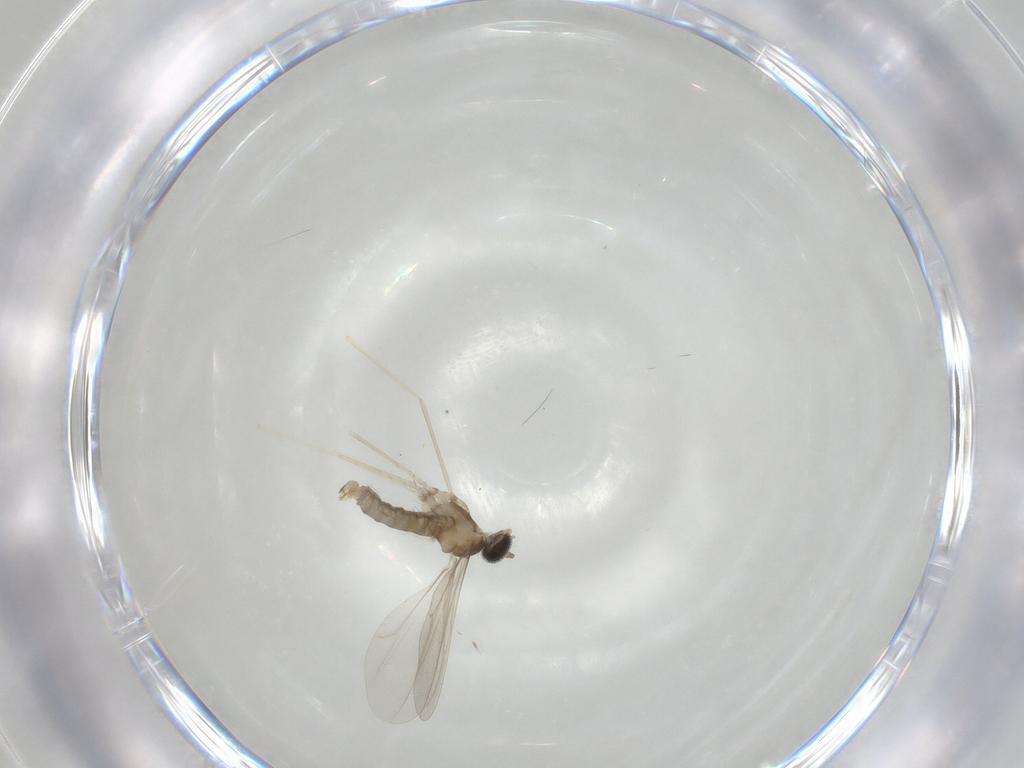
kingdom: Animalia
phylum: Arthropoda
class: Insecta
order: Diptera
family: Cecidomyiidae
